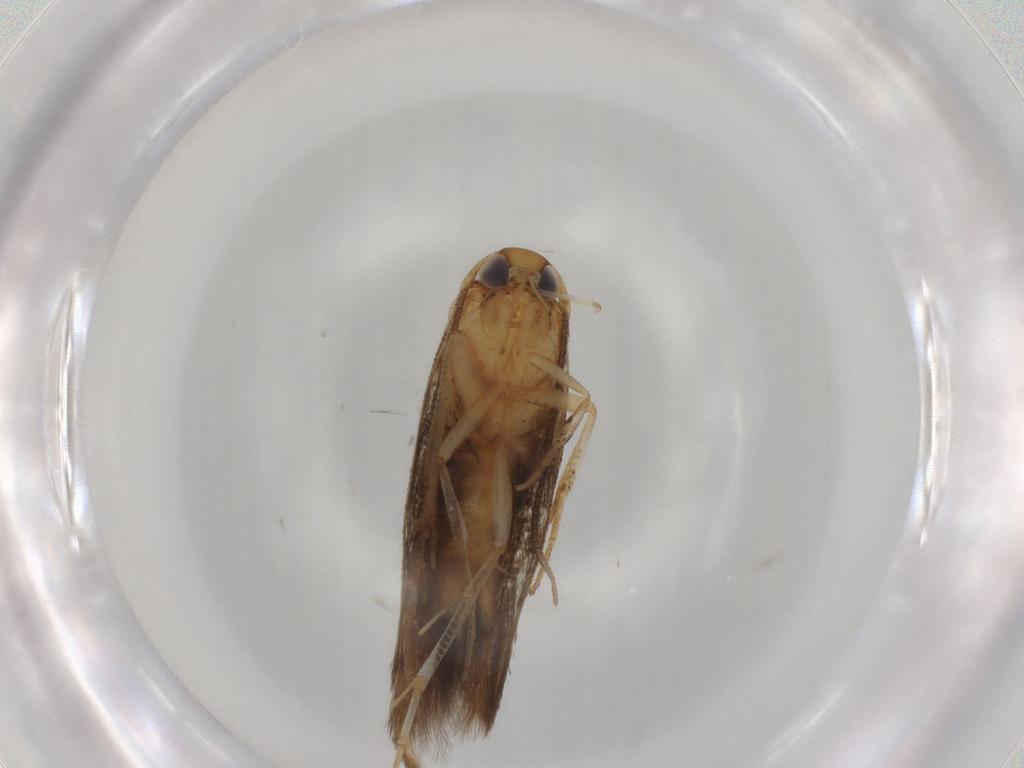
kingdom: Animalia
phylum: Arthropoda
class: Insecta
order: Lepidoptera
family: Cosmopterigidae
